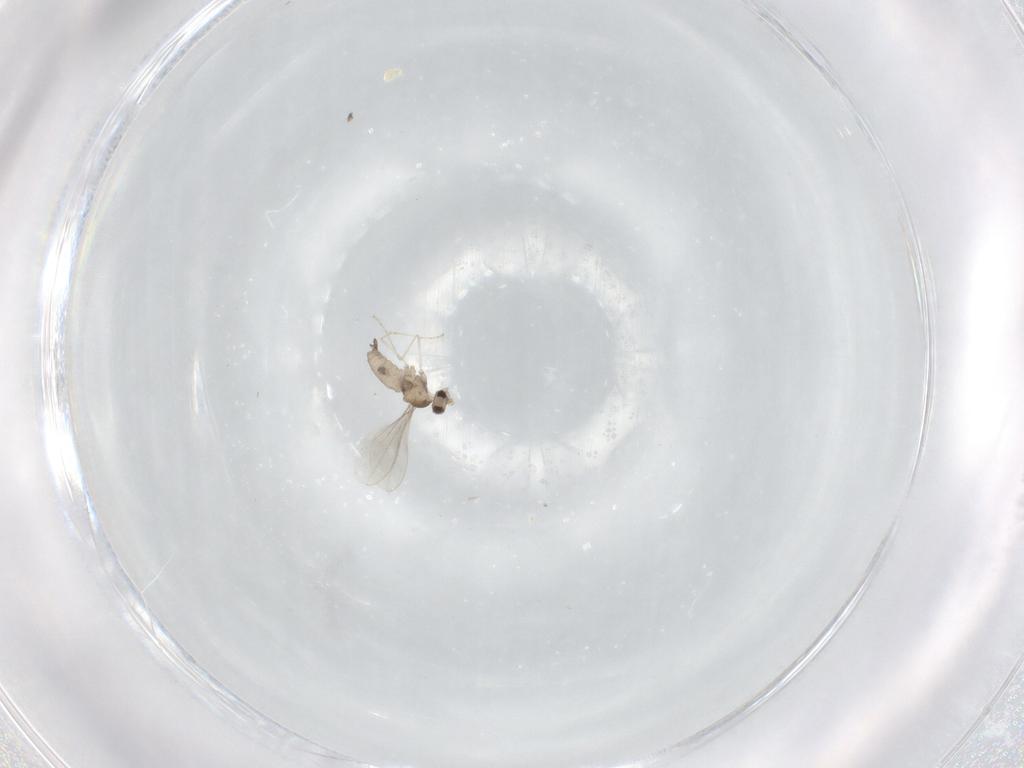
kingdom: Animalia
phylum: Arthropoda
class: Insecta
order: Diptera
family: Cecidomyiidae
